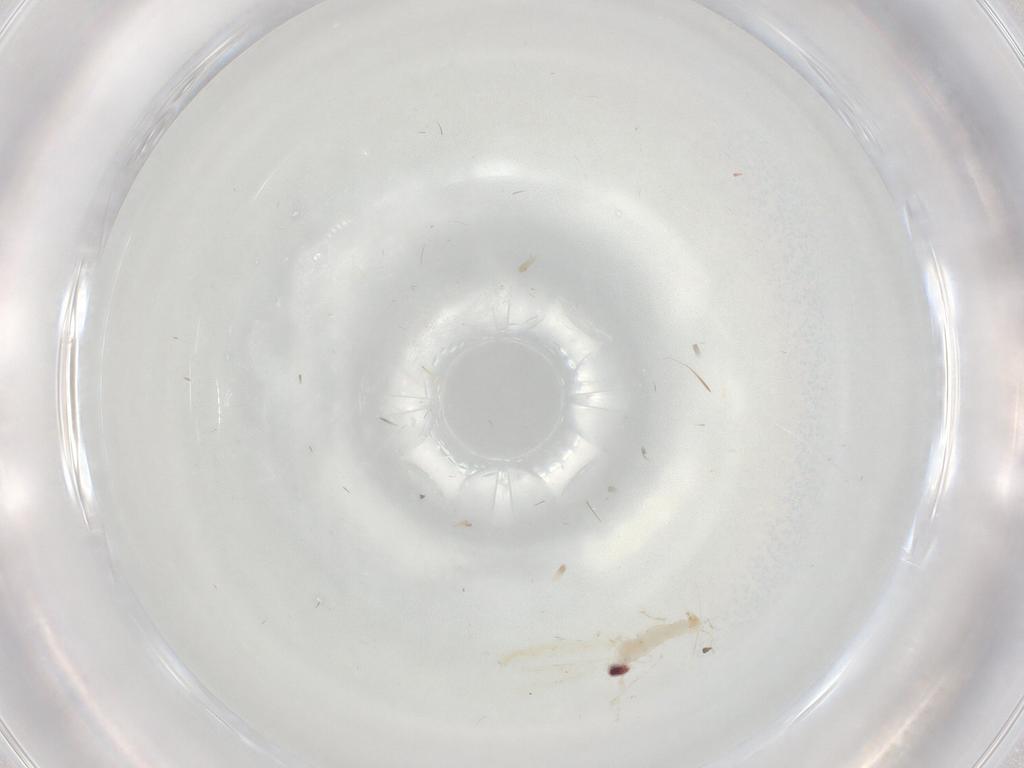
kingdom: Animalia
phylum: Arthropoda
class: Insecta
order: Diptera
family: Cecidomyiidae
